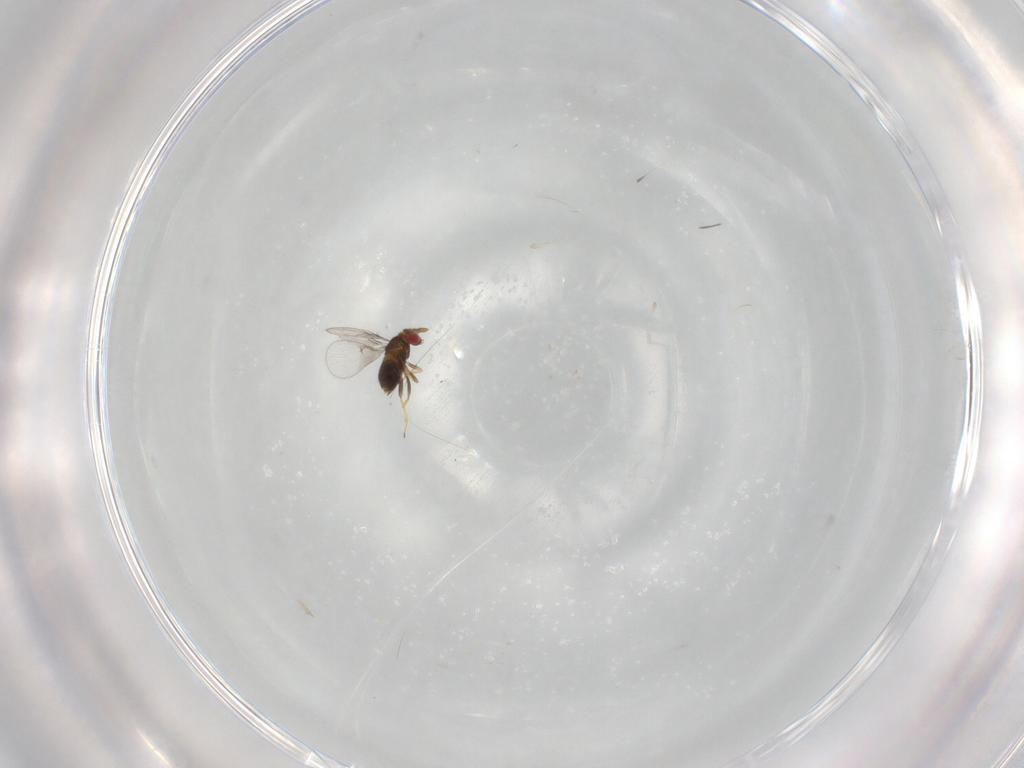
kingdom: Animalia
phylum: Arthropoda
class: Insecta
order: Hymenoptera
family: Trichogrammatidae
